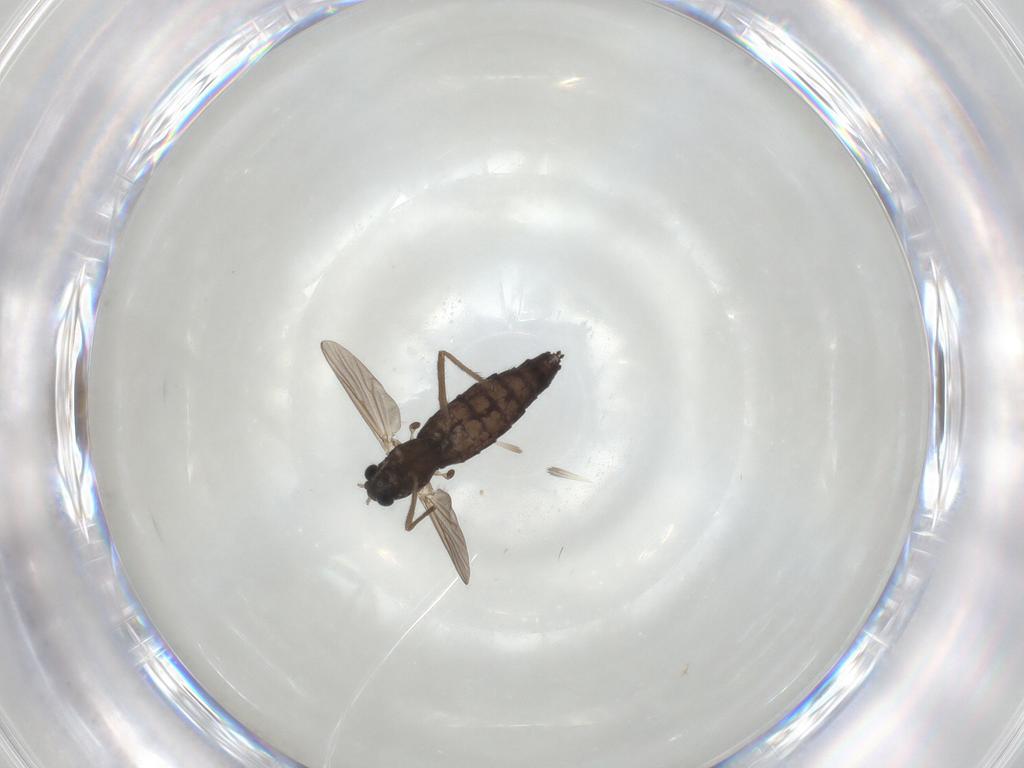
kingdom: Animalia
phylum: Arthropoda
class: Insecta
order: Diptera
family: Chironomidae
